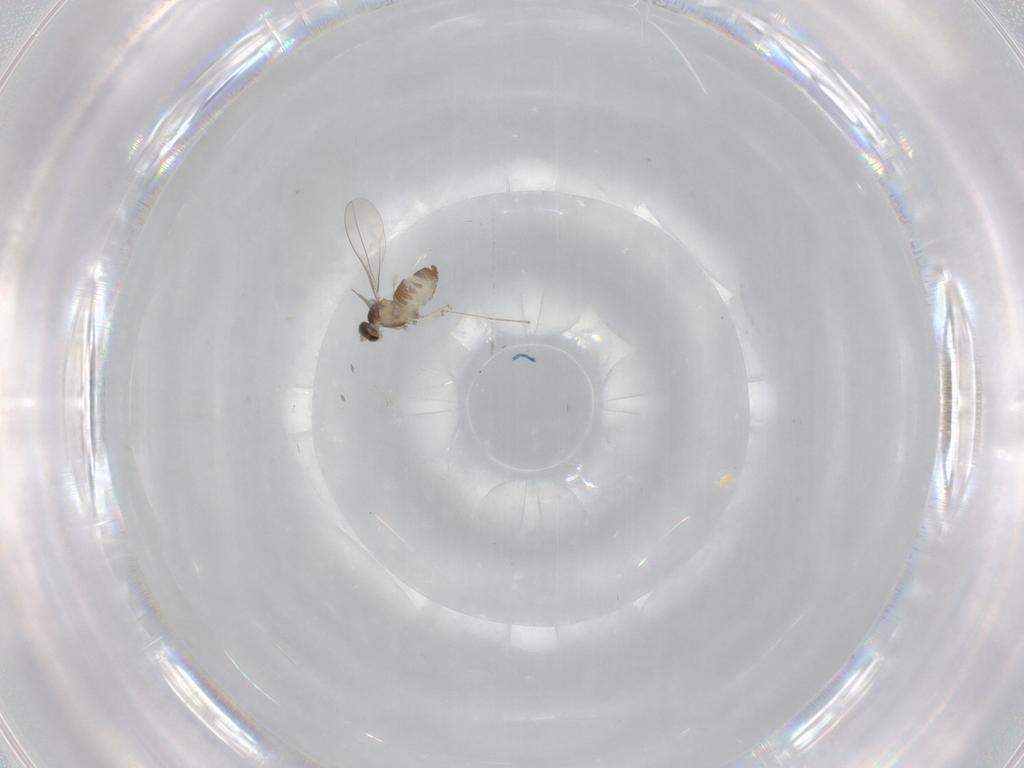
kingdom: Animalia
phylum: Arthropoda
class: Insecta
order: Diptera
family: Cecidomyiidae
